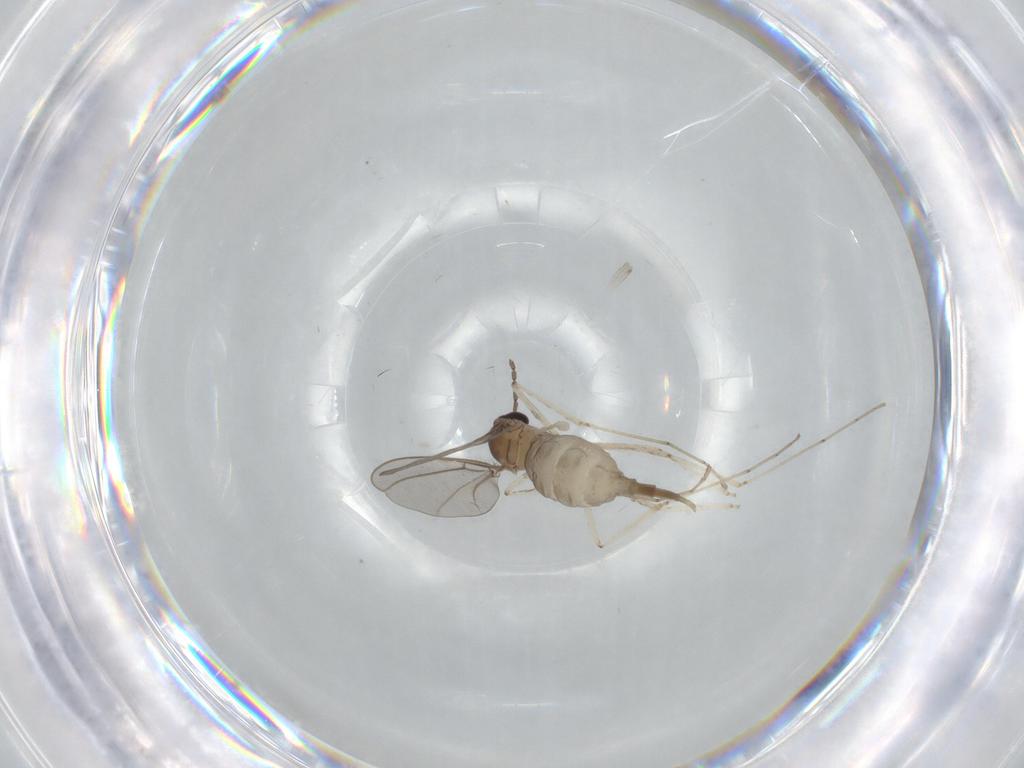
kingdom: Animalia
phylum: Arthropoda
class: Insecta
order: Diptera
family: Cecidomyiidae
